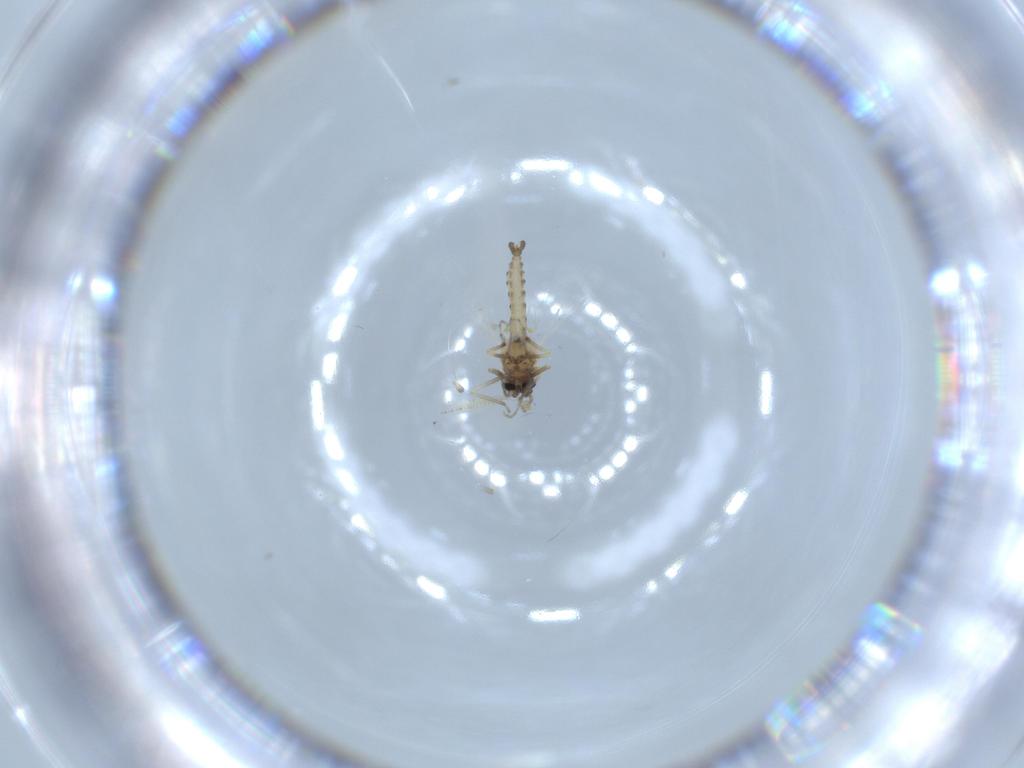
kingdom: Animalia
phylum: Arthropoda
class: Insecta
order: Diptera
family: Ceratopogonidae
